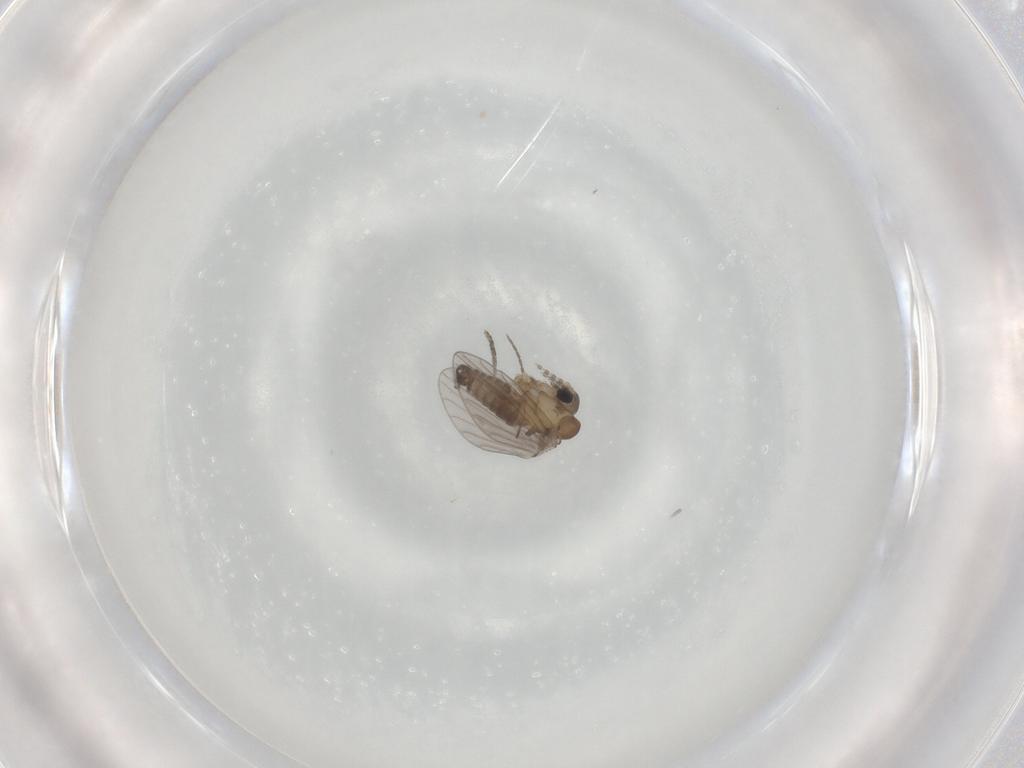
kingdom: Animalia
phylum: Arthropoda
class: Insecta
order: Diptera
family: Cecidomyiidae
